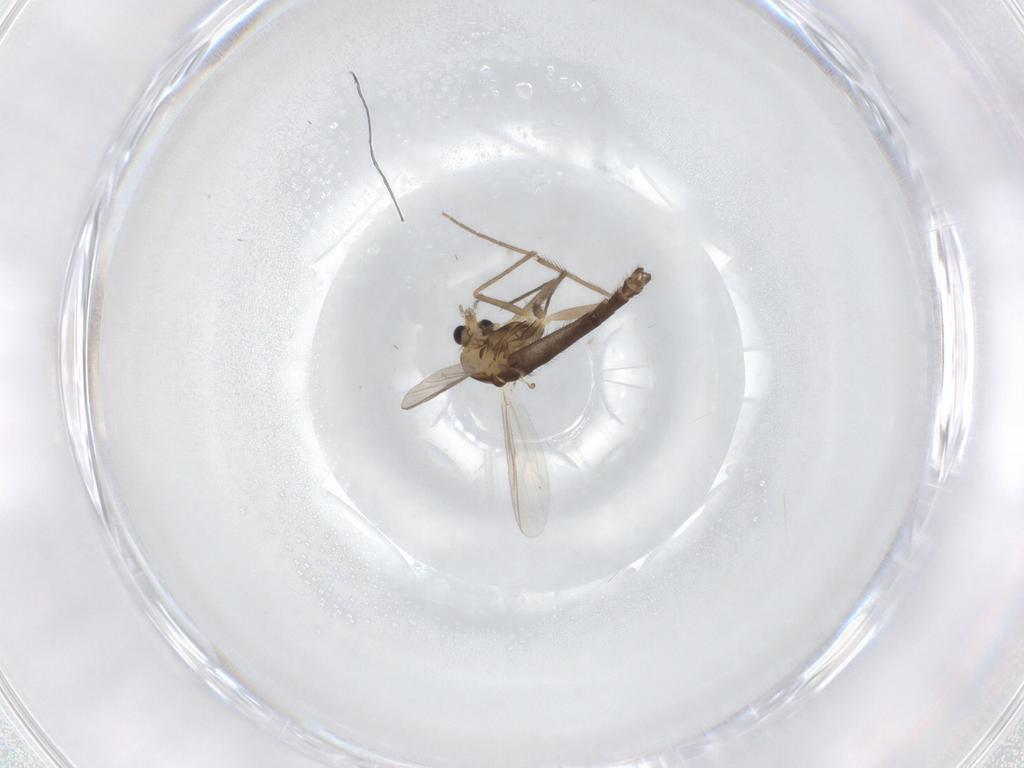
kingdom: Animalia
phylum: Arthropoda
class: Insecta
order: Diptera
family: Chironomidae
